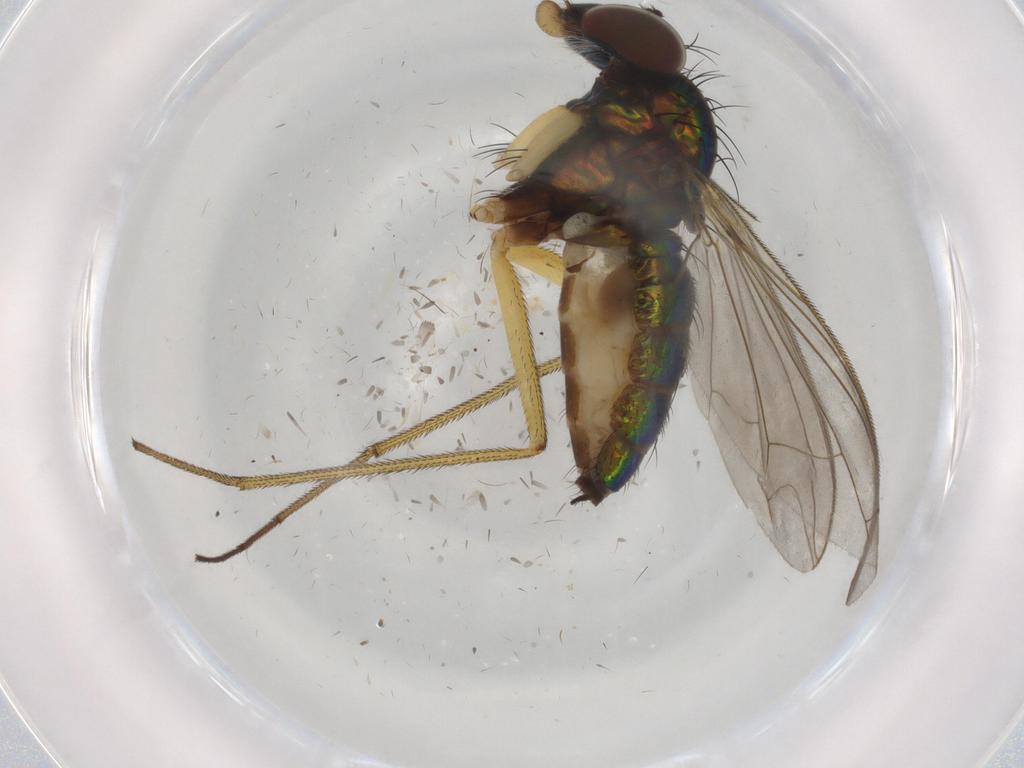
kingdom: Animalia
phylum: Arthropoda
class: Insecta
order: Diptera
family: Dolichopodidae
